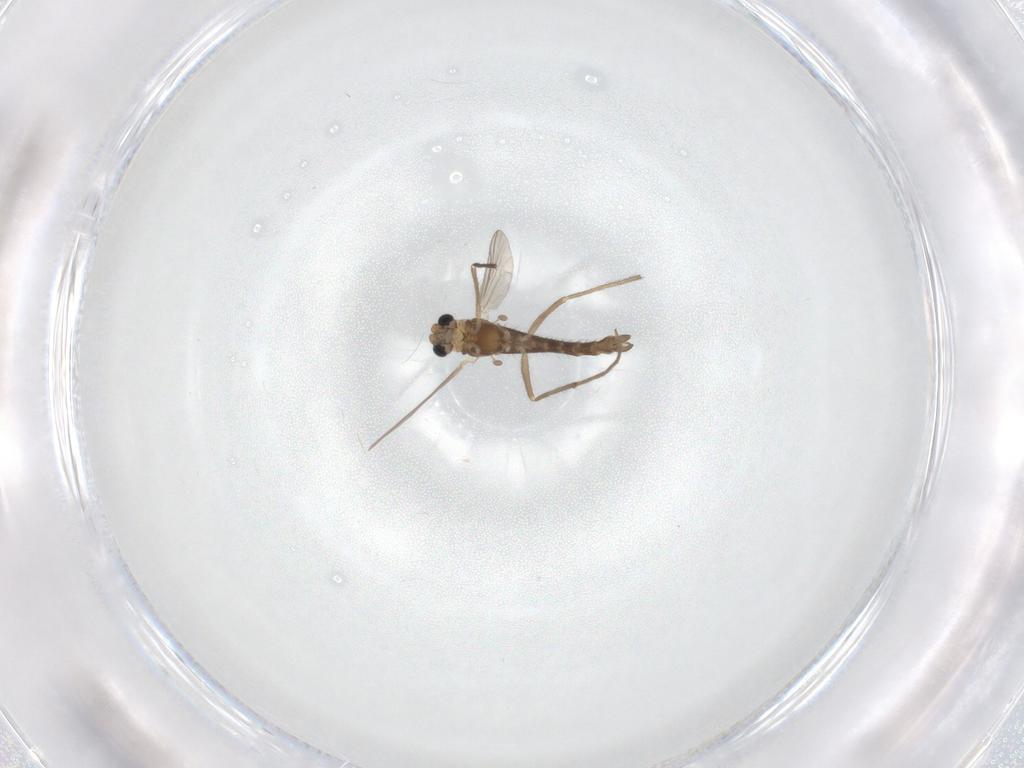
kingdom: Animalia
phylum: Arthropoda
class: Insecta
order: Diptera
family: Chironomidae
